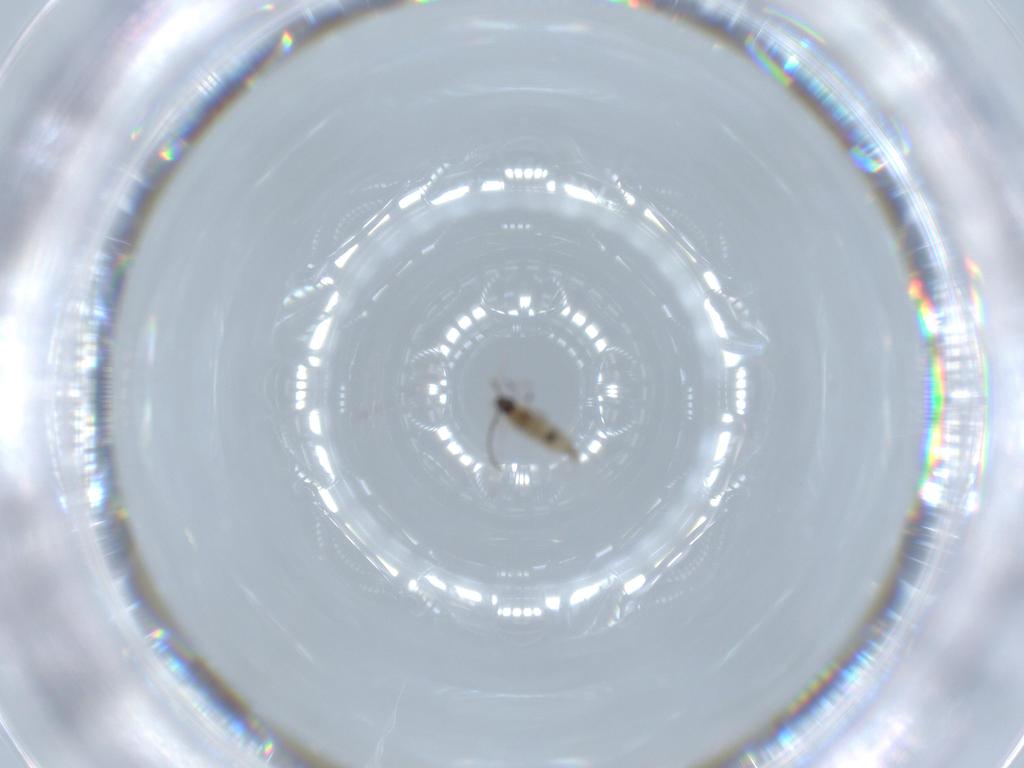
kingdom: Animalia
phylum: Arthropoda
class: Insecta
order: Diptera
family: Cecidomyiidae
